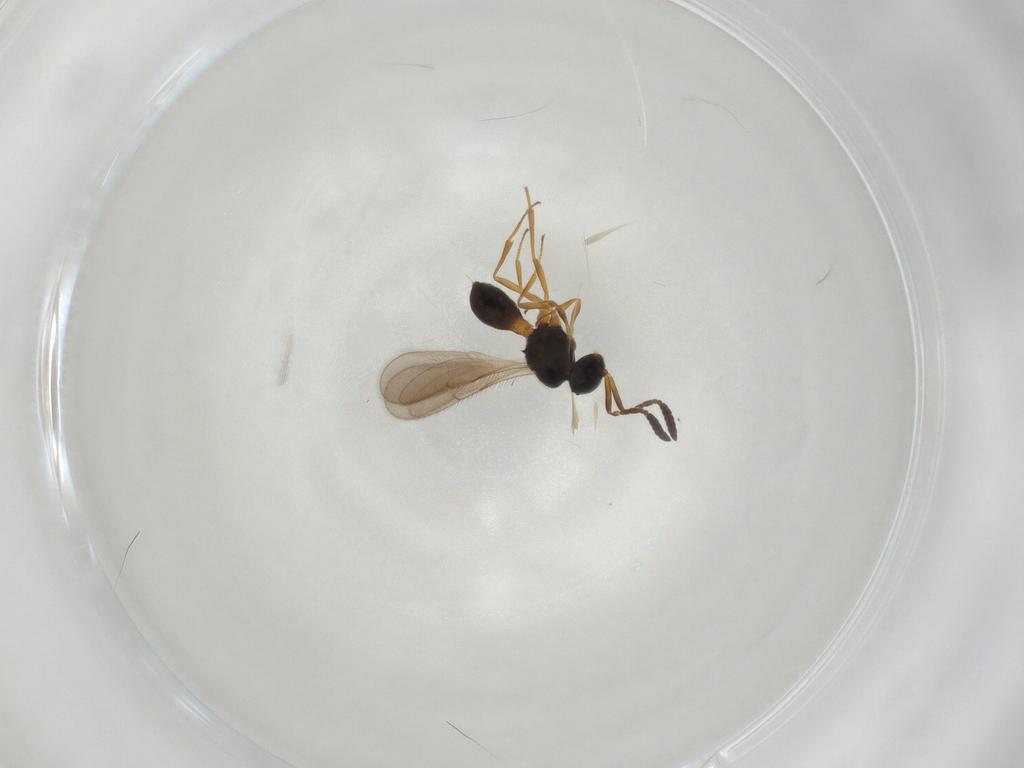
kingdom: Animalia
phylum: Arthropoda
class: Insecta
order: Hymenoptera
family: Scelionidae
